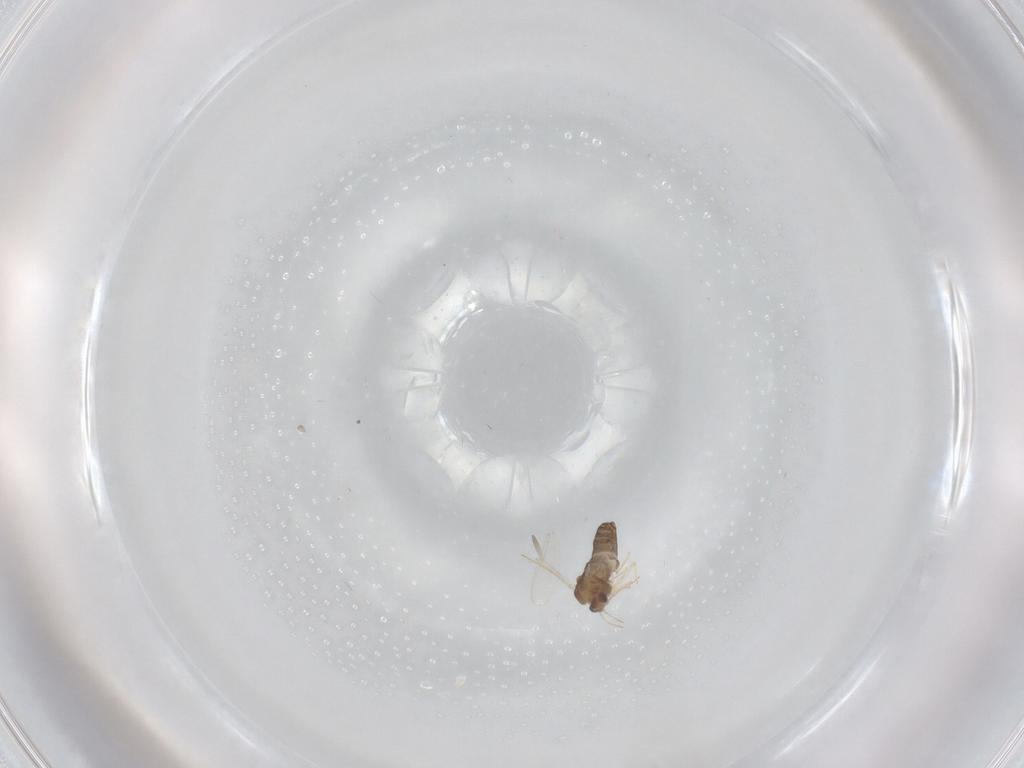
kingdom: Animalia
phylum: Arthropoda
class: Insecta
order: Diptera
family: Chironomidae
